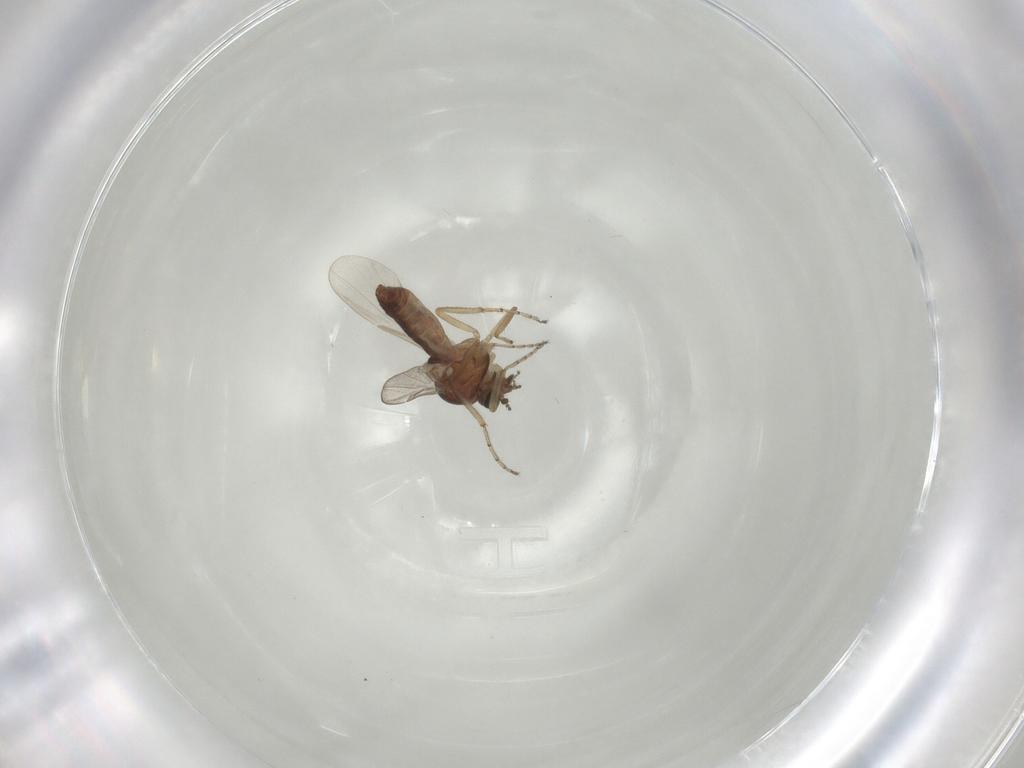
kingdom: Animalia
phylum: Arthropoda
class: Insecta
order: Diptera
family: Ceratopogonidae
